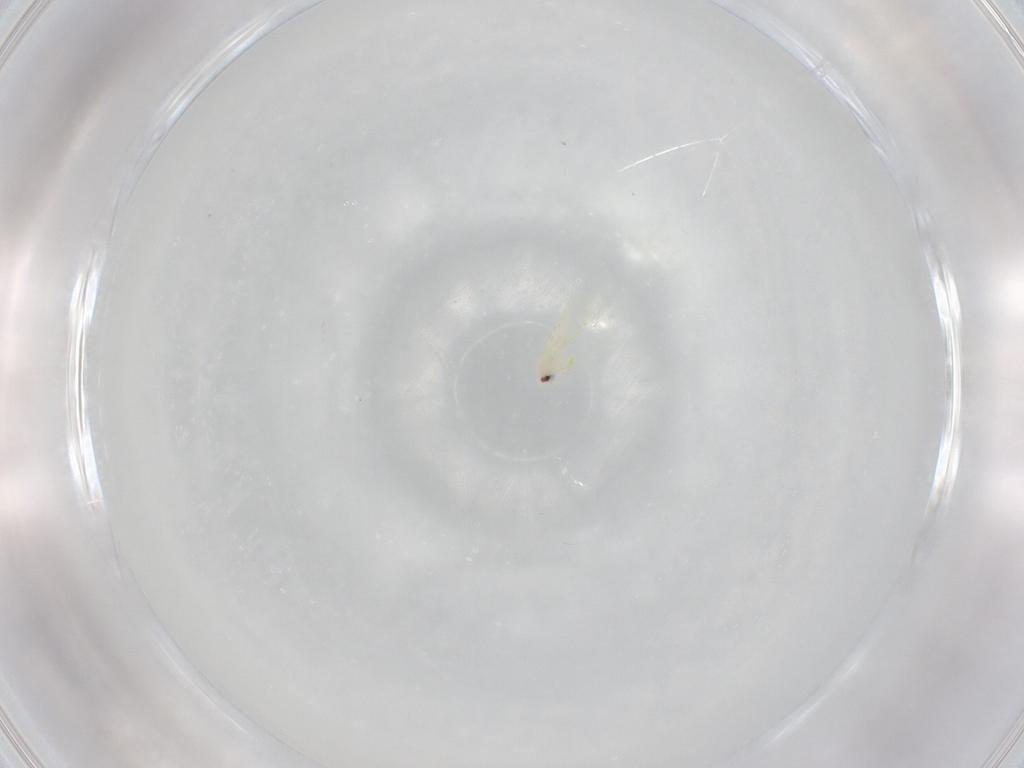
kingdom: Animalia
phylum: Arthropoda
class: Insecta
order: Hemiptera
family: Aleyrodidae
